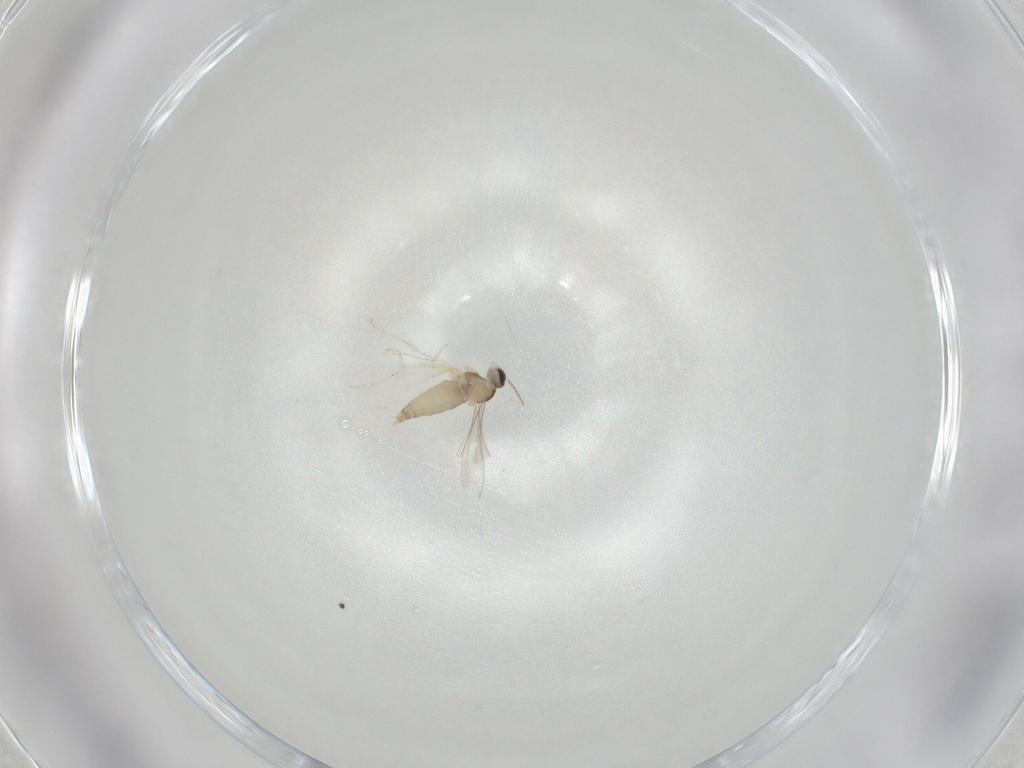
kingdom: Animalia
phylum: Arthropoda
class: Insecta
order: Diptera
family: Cecidomyiidae
